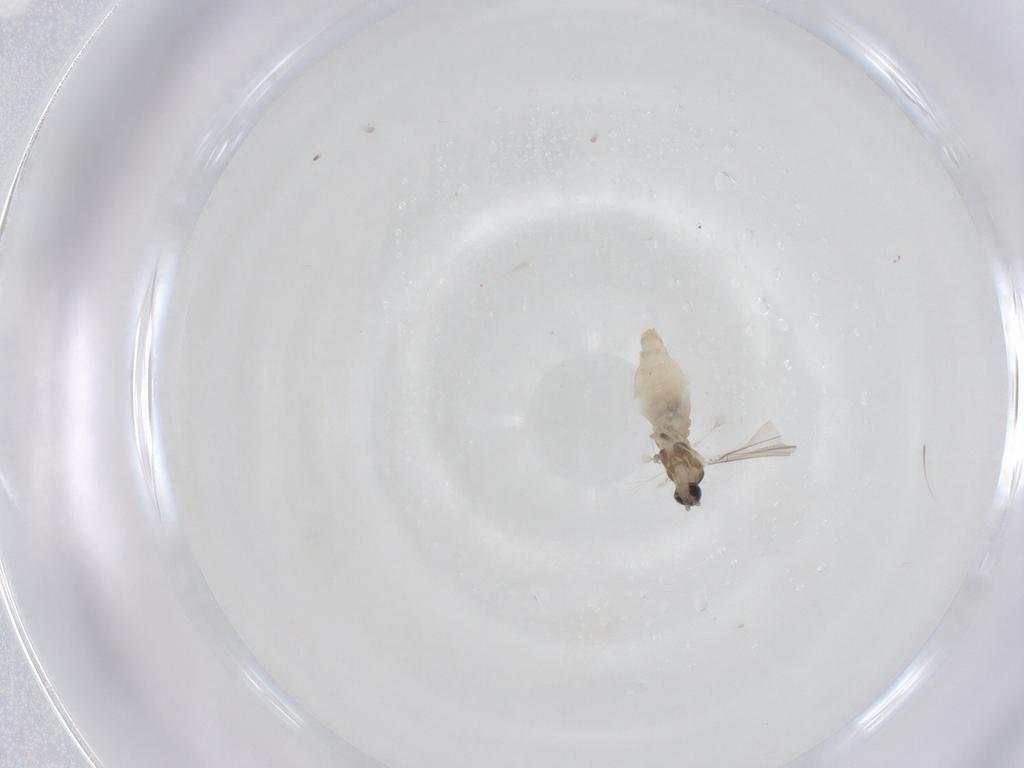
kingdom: Animalia
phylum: Arthropoda
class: Insecta
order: Diptera
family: Cecidomyiidae
